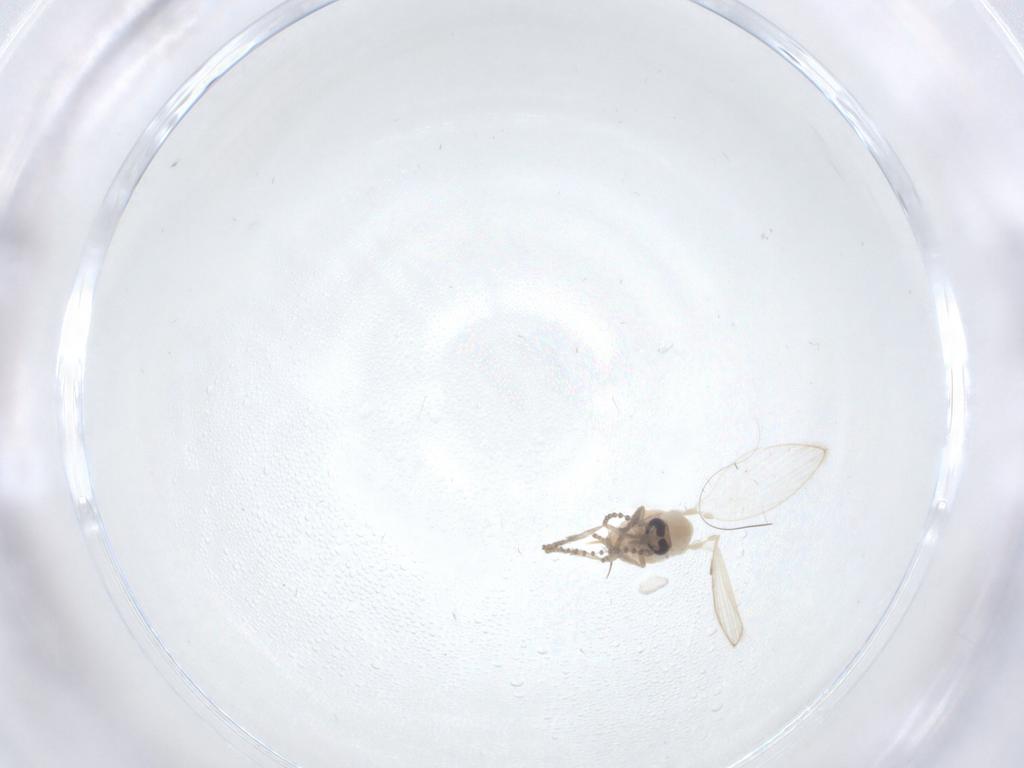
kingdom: Animalia
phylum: Arthropoda
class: Insecta
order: Diptera
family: Psychodidae
